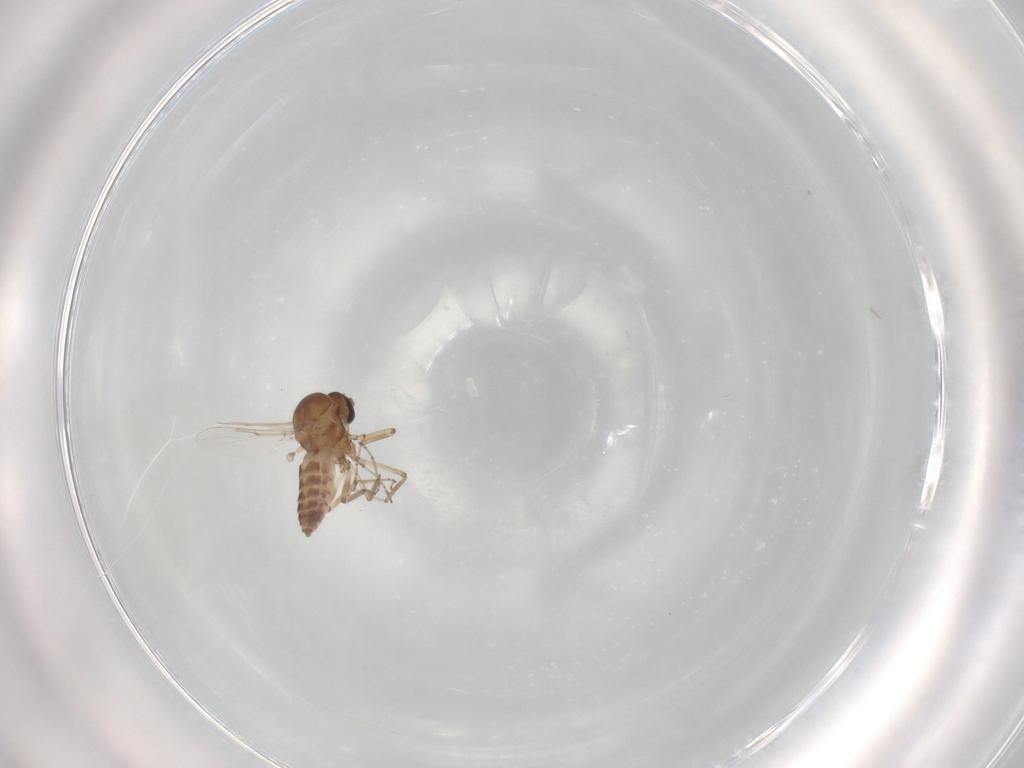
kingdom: Animalia
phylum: Arthropoda
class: Insecta
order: Diptera
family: Ceratopogonidae
